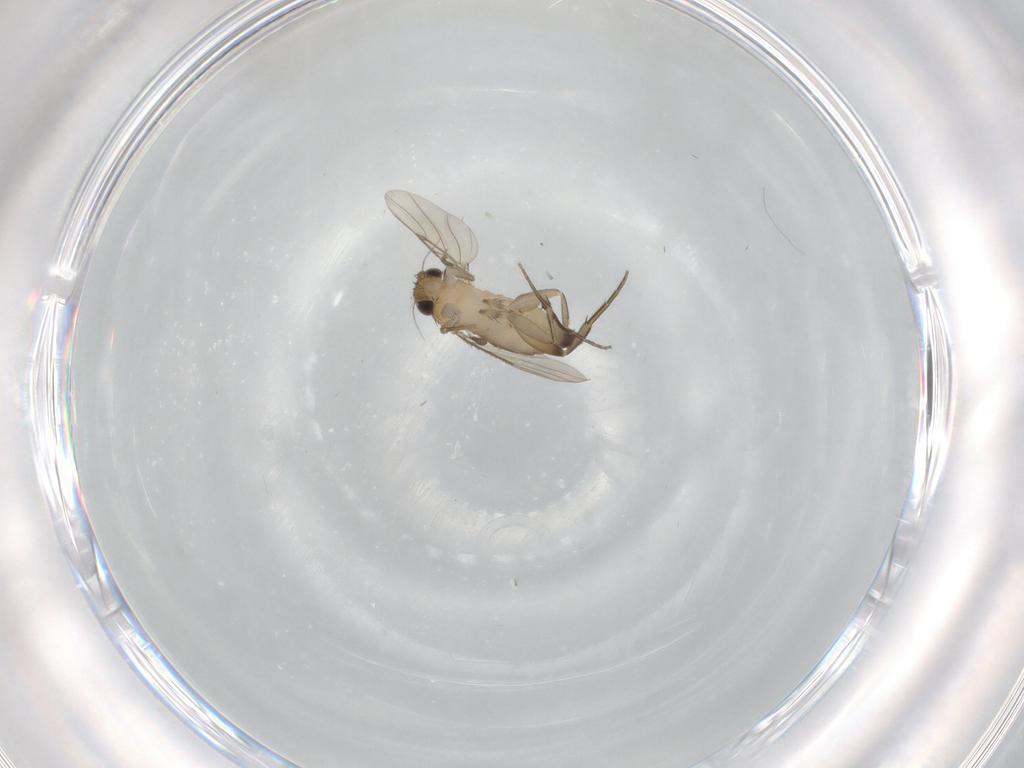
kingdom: Animalia
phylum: Arthropoda
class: Insecta
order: Diptera
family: Phoridae
